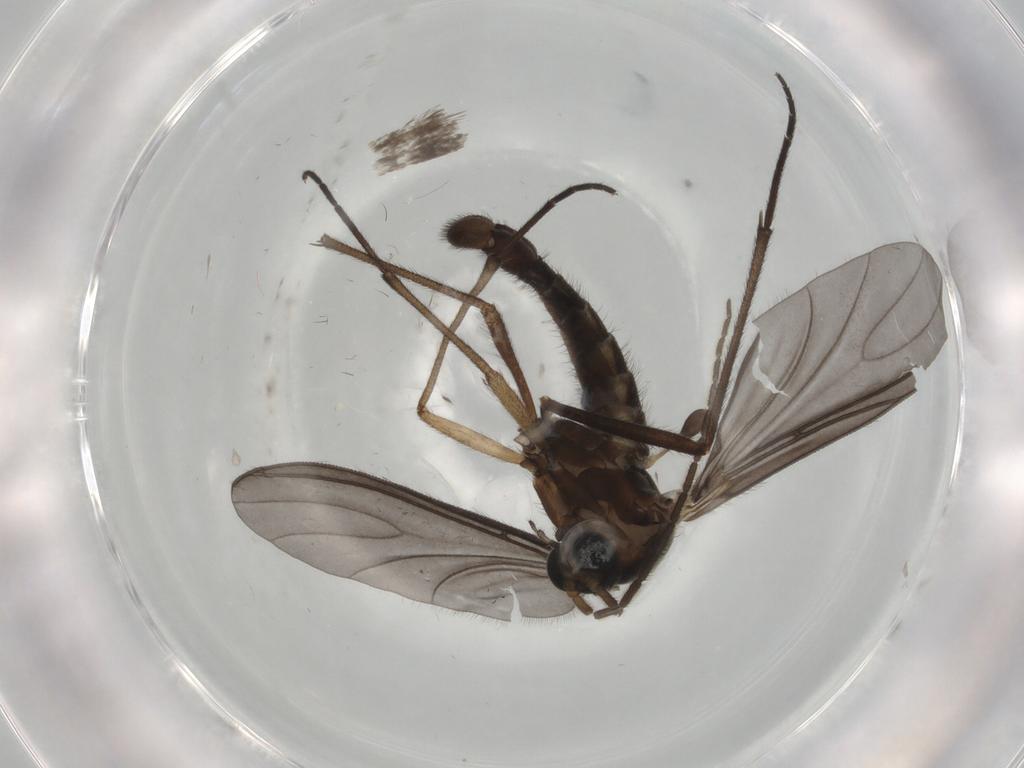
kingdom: Animalia
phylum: Arthropoda
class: Insecta
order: Diptera
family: Sciaridae
